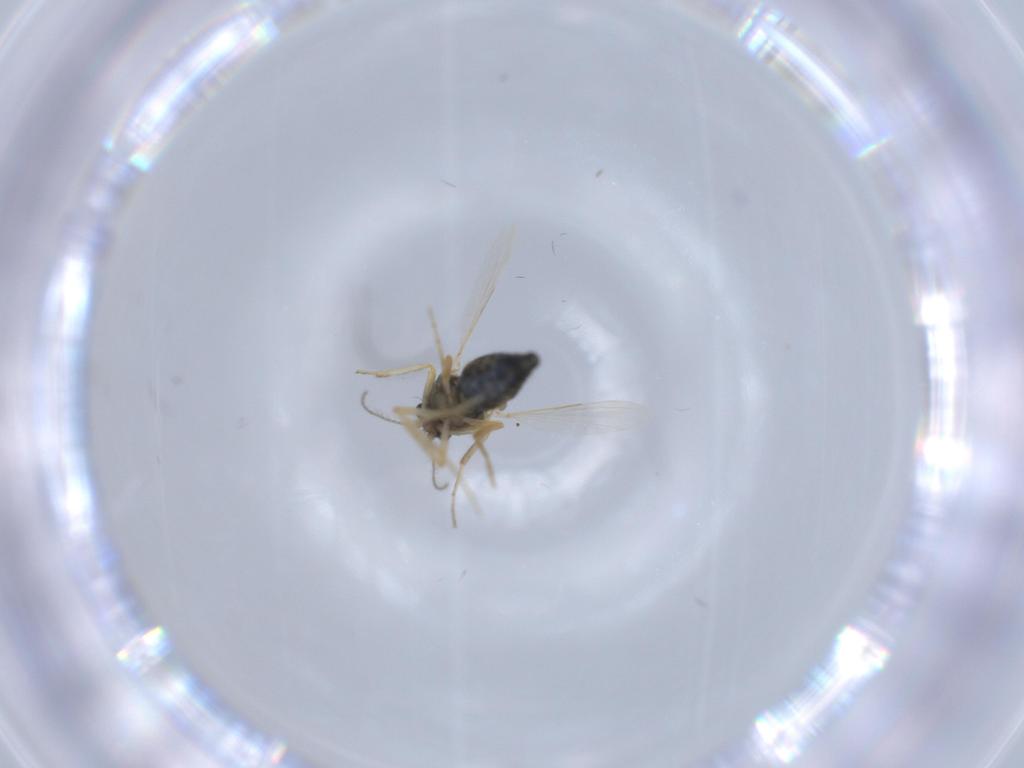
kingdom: Animalia
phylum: Arthropoda
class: Insecta
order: Diptera
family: Ceratopogonidae
